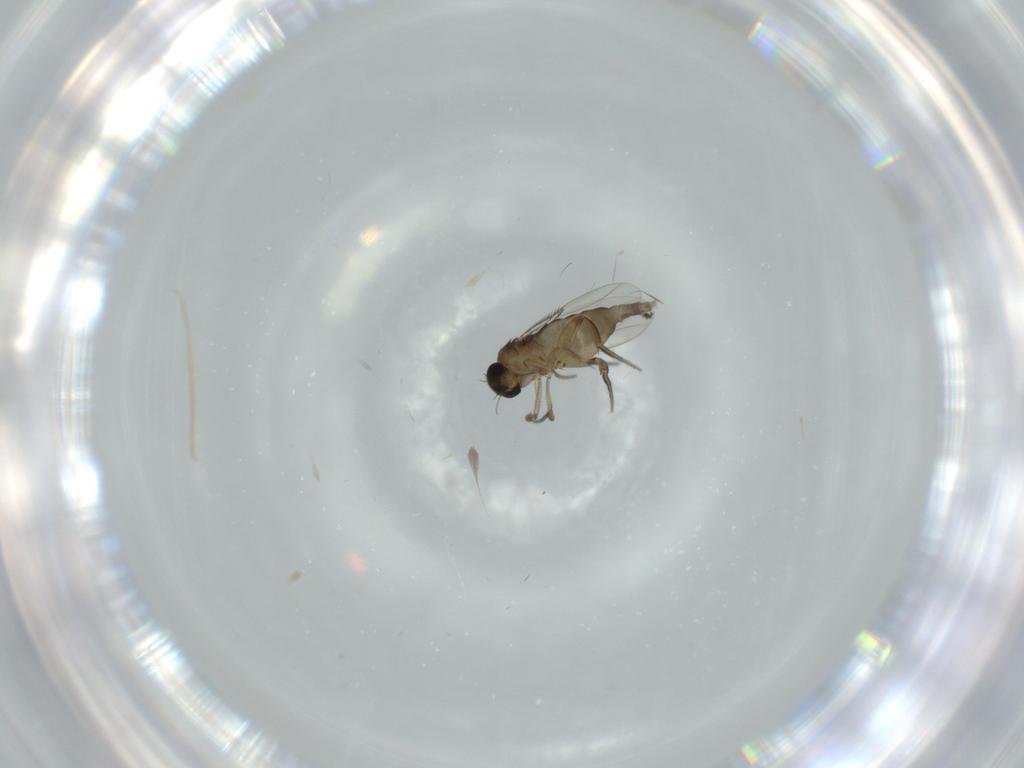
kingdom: Animalia
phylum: Arthropoda
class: Insecta
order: Diptera
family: Phoridae
